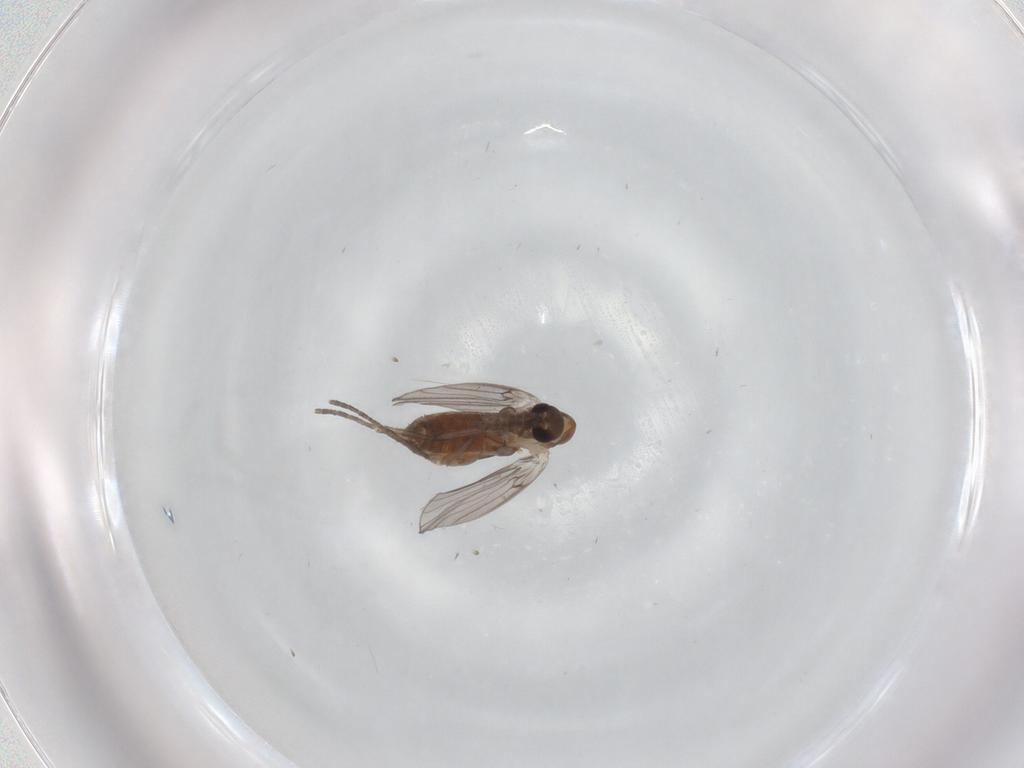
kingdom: Animalia
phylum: Arthropoda
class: Insecta
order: Diptera
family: Psychodidae
